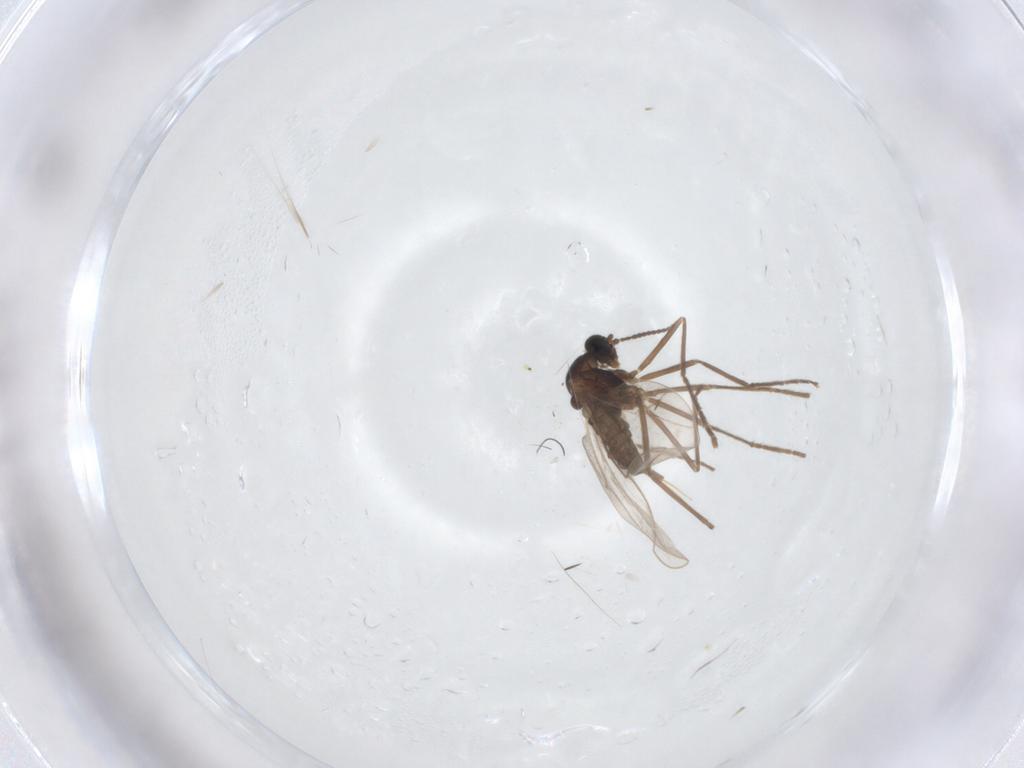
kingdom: Animalia
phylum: Arthropoda
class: Insecta
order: Diptera
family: Cecidomyiidae
